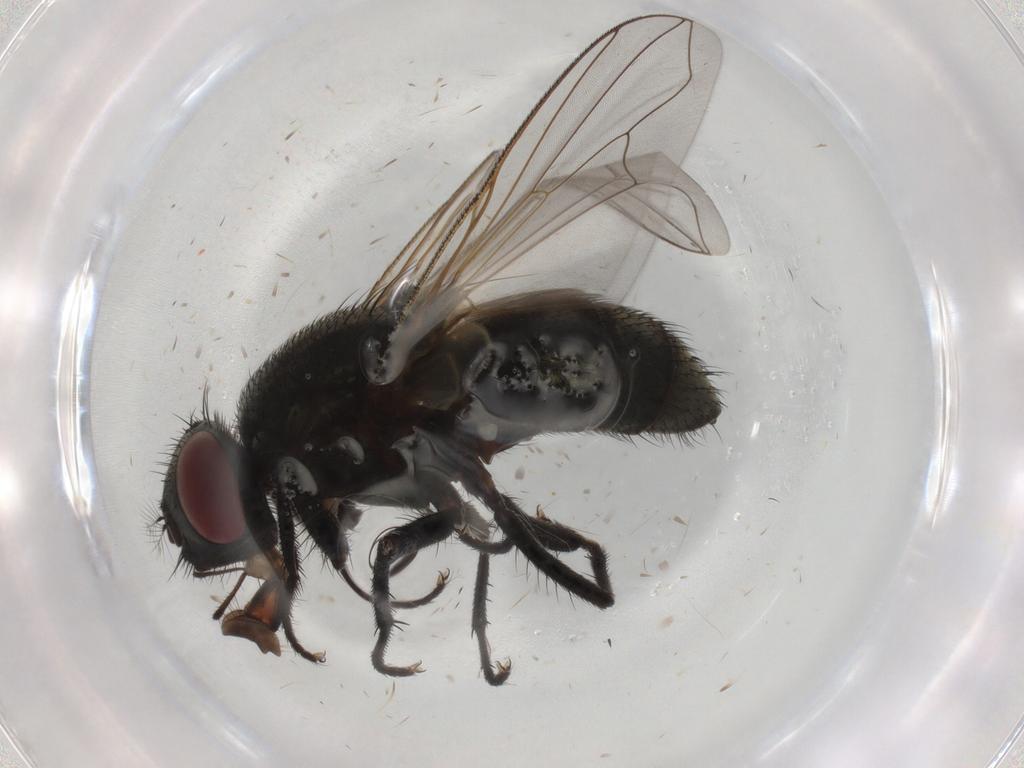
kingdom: Animalia
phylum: Arthropoda
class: Insecta
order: Diptera
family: Muscidae
